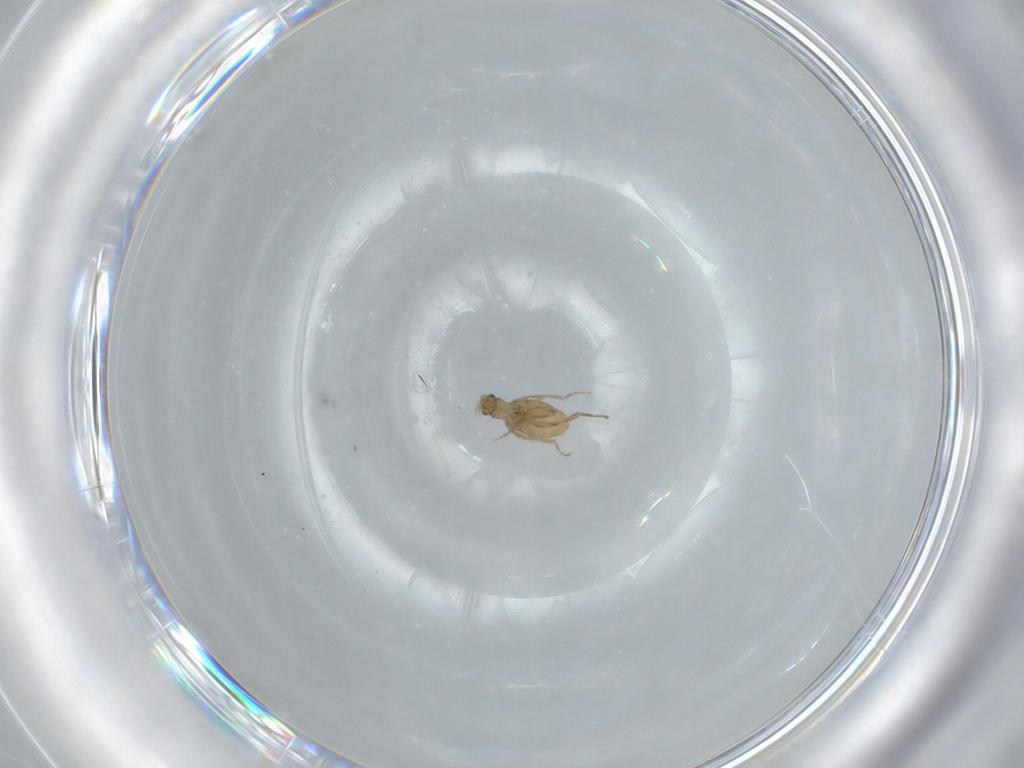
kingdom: Animalia
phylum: Arthropoda
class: Insecta
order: Diptera
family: Phoridae
